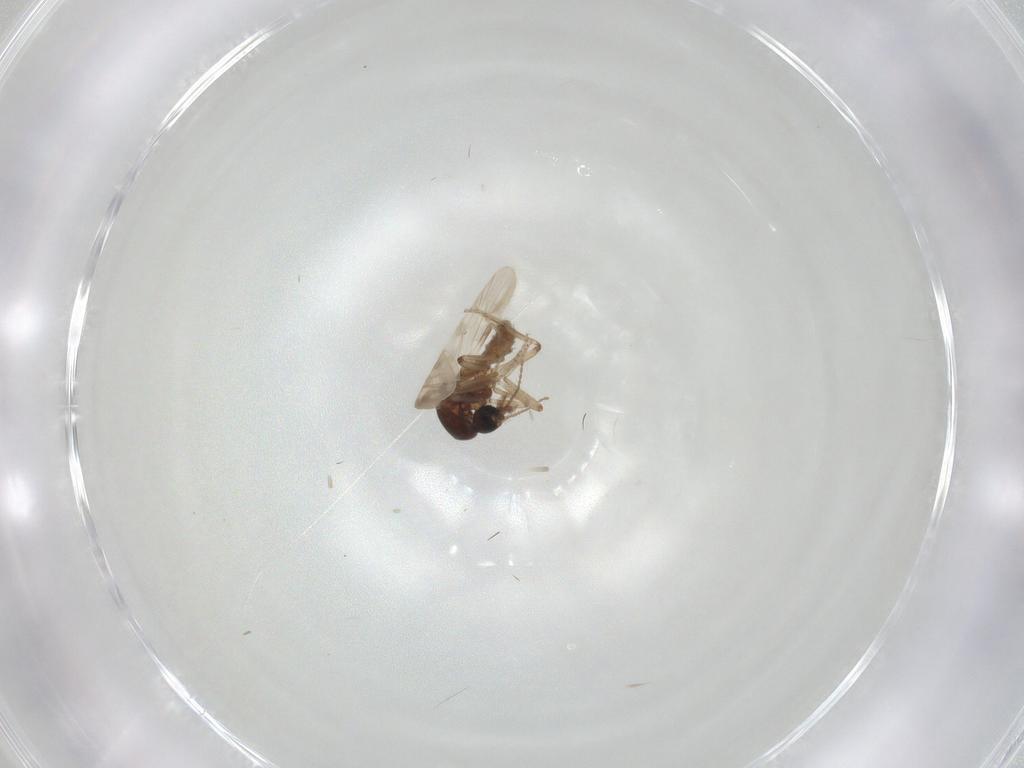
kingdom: Animalia
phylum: Arthropoda
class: Insecta
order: Diptera
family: Ceratopogonidae
